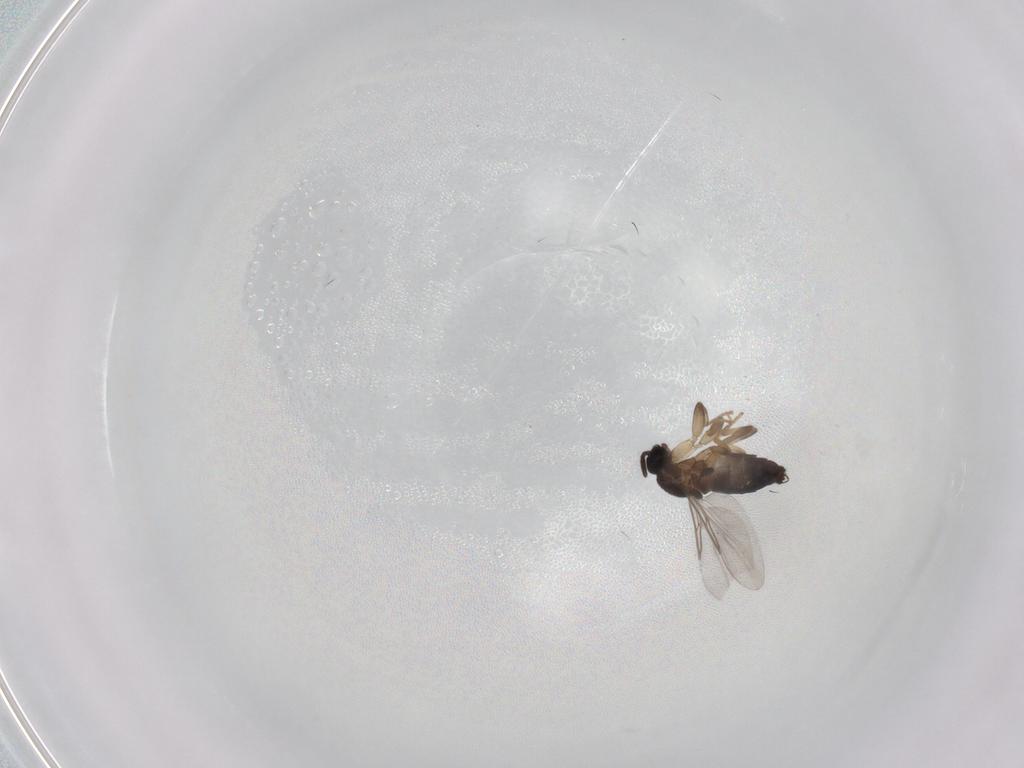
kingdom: Animalia
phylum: Arthropoda
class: Insecta
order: Diptera
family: Phoridae
